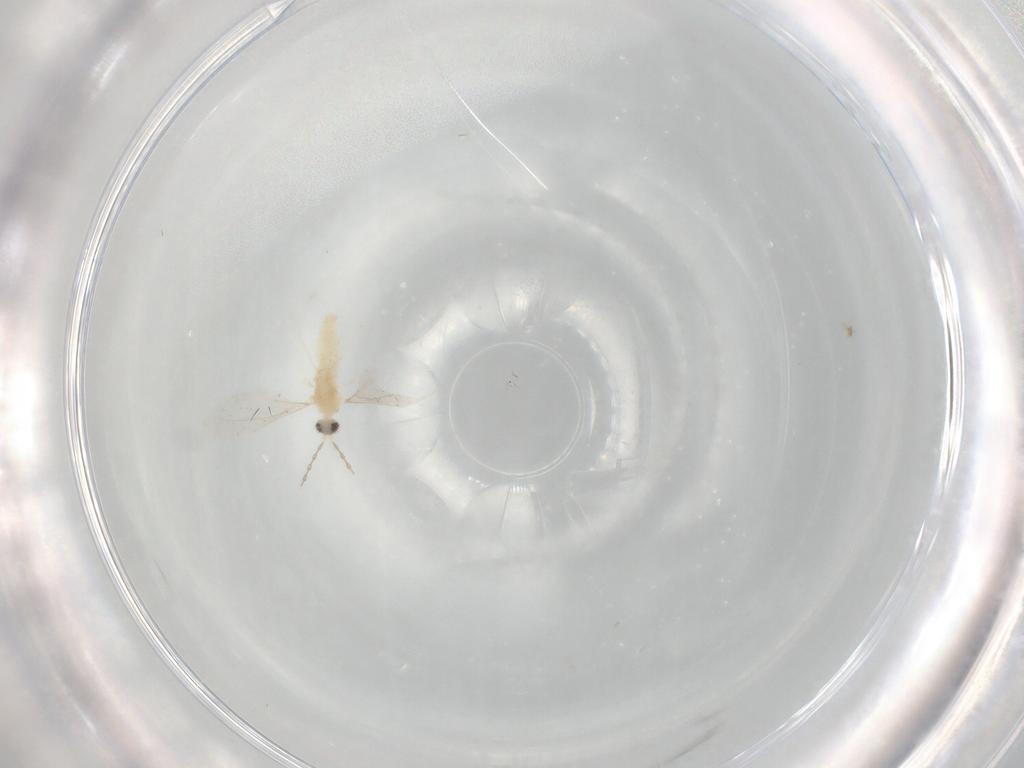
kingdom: Animalia
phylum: Arthropoda
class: Insecta
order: Diptera
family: Cecidomyiidae
